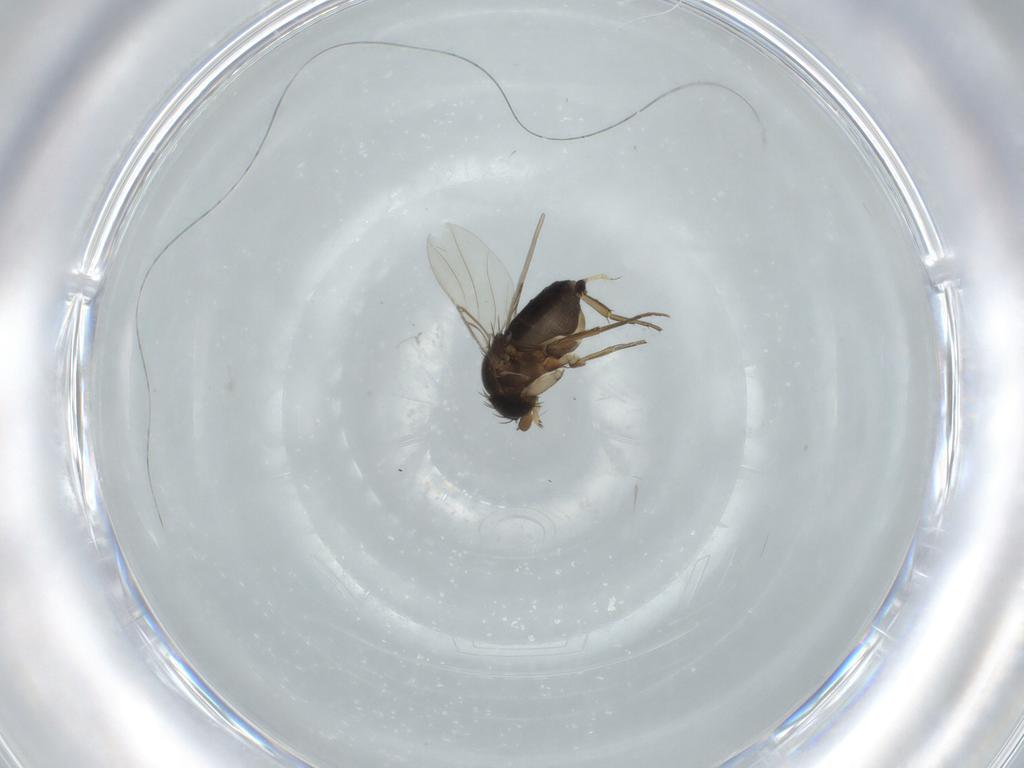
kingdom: Animalia
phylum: Arthropoda
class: Insecta
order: Diptera
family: Phoridae
